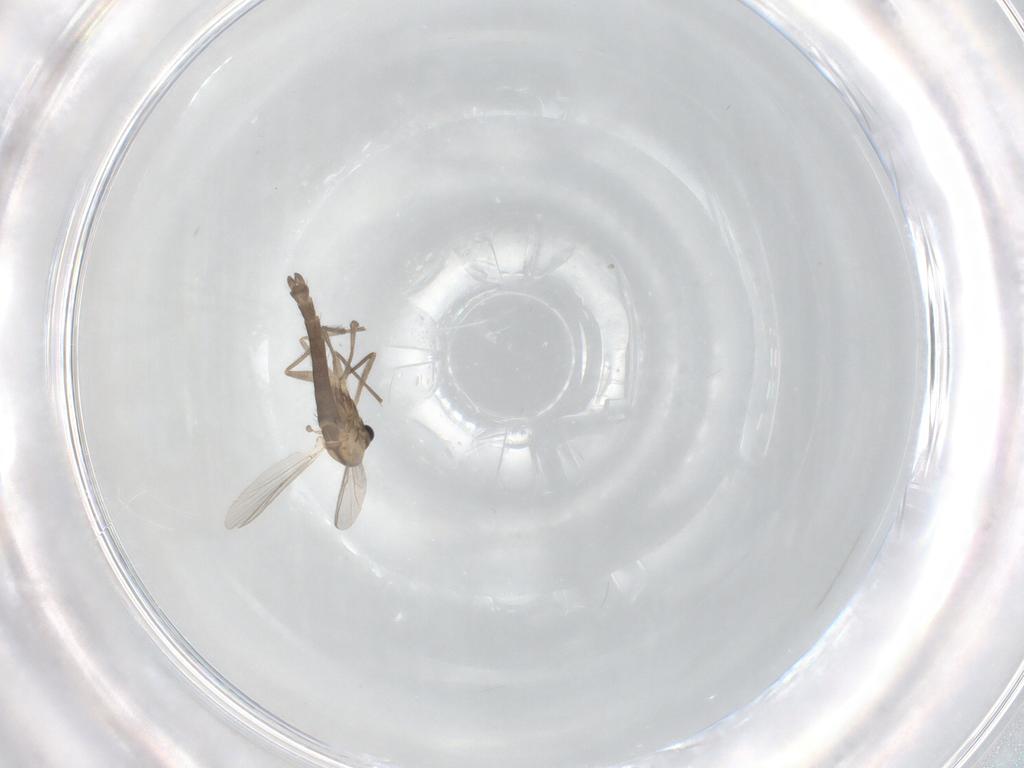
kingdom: Animalia
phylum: Arthropoda
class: Insecta
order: Diptera
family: Chironomidae
